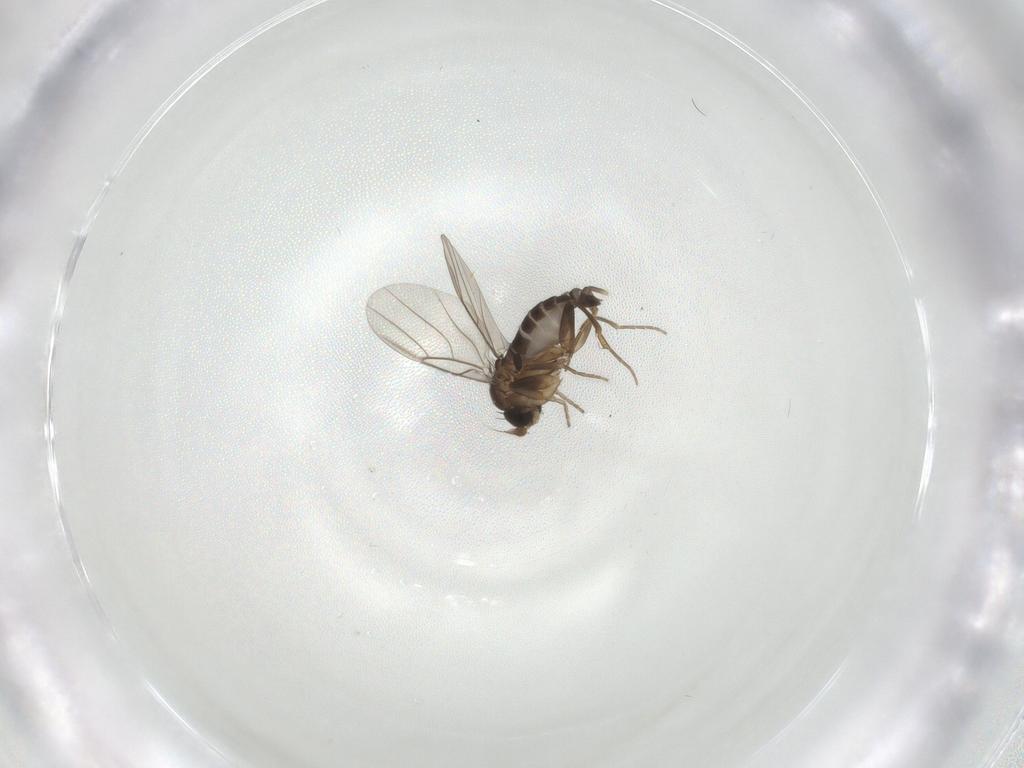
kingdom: Animalia
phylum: Arthropoda
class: Insecta
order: Diptera
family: Phoridae
